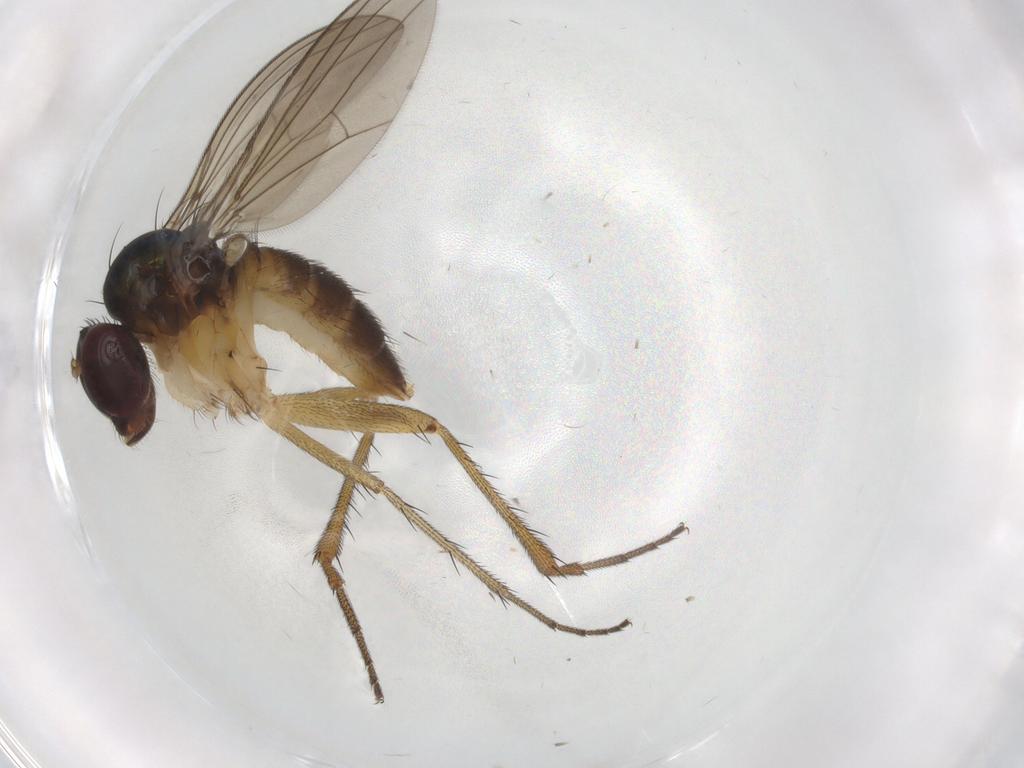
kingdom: Animalia
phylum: Arthropoda
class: Insecta
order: Diptera
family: Dolichopodidae
